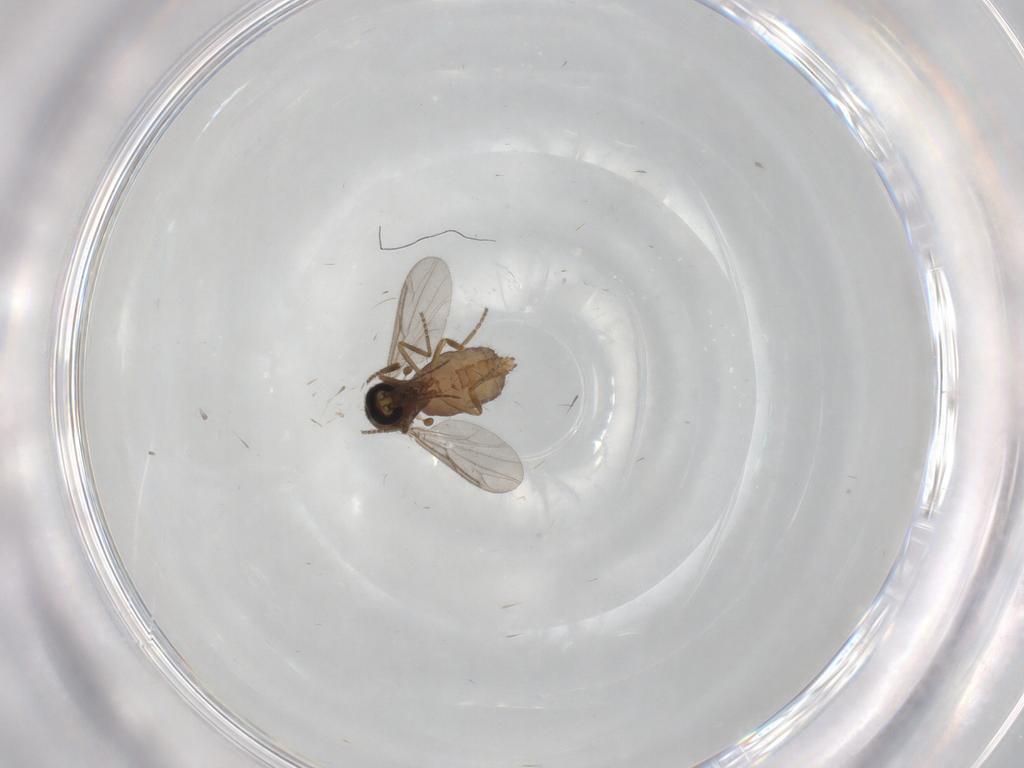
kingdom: Animalia
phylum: Arthropoda
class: Insecta
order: Diptera
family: Ceratopogonidae
